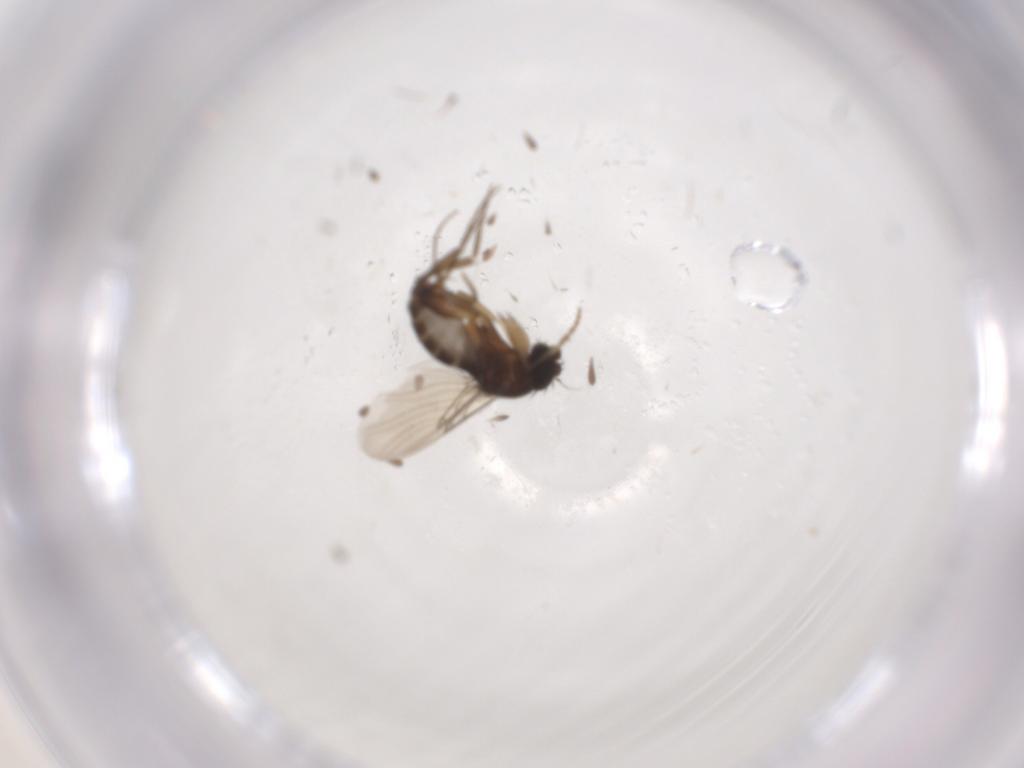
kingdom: Animalia
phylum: Arthropoda
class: Insecta
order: Diptera
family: Phoridae
